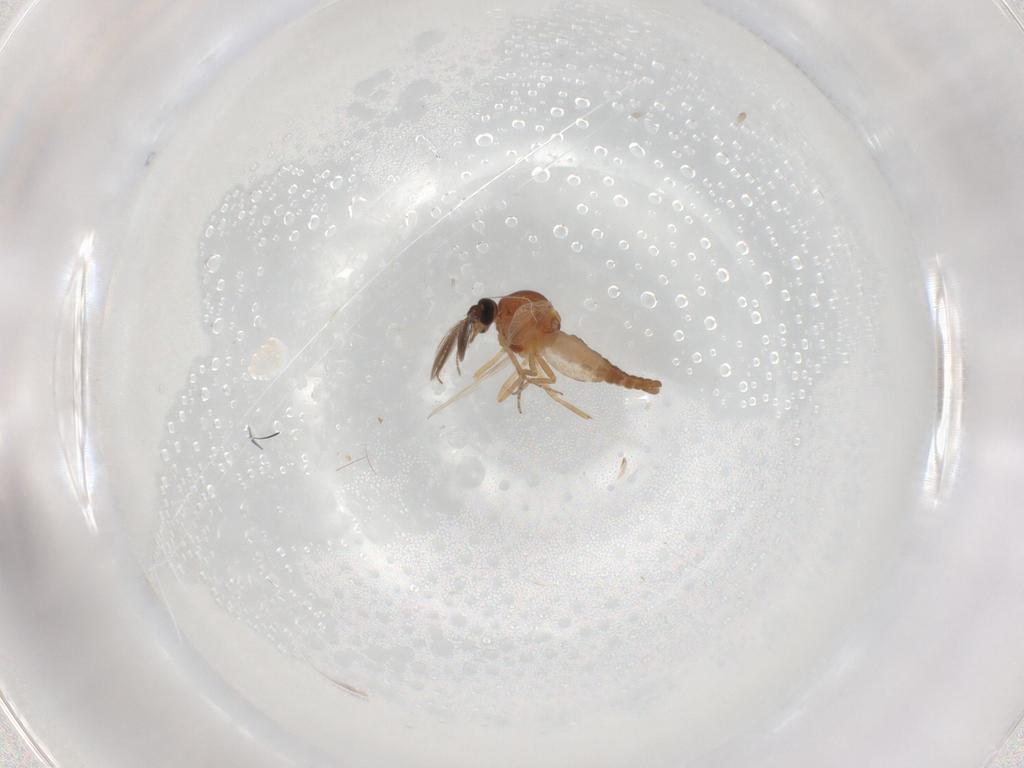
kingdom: Animalia
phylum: Arthropoda
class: Insecta
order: Diptera
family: Ceratopogonidae
